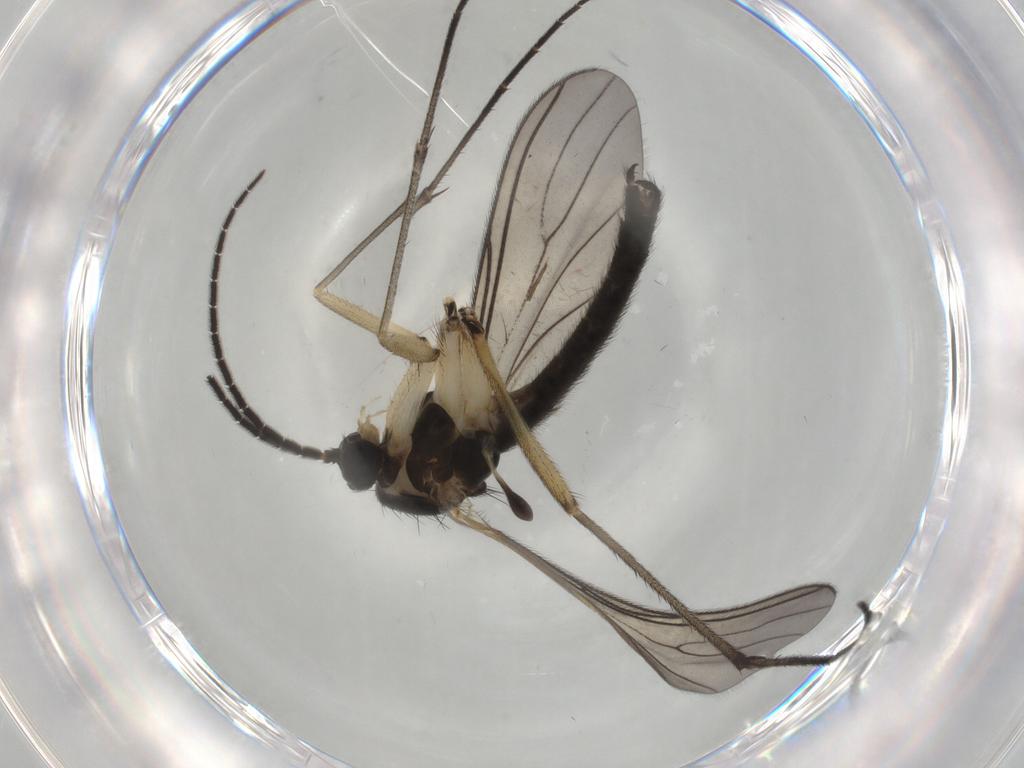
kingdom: Animalia
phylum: Arthropoda
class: Insecta
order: Diptera
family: Sciaridae
